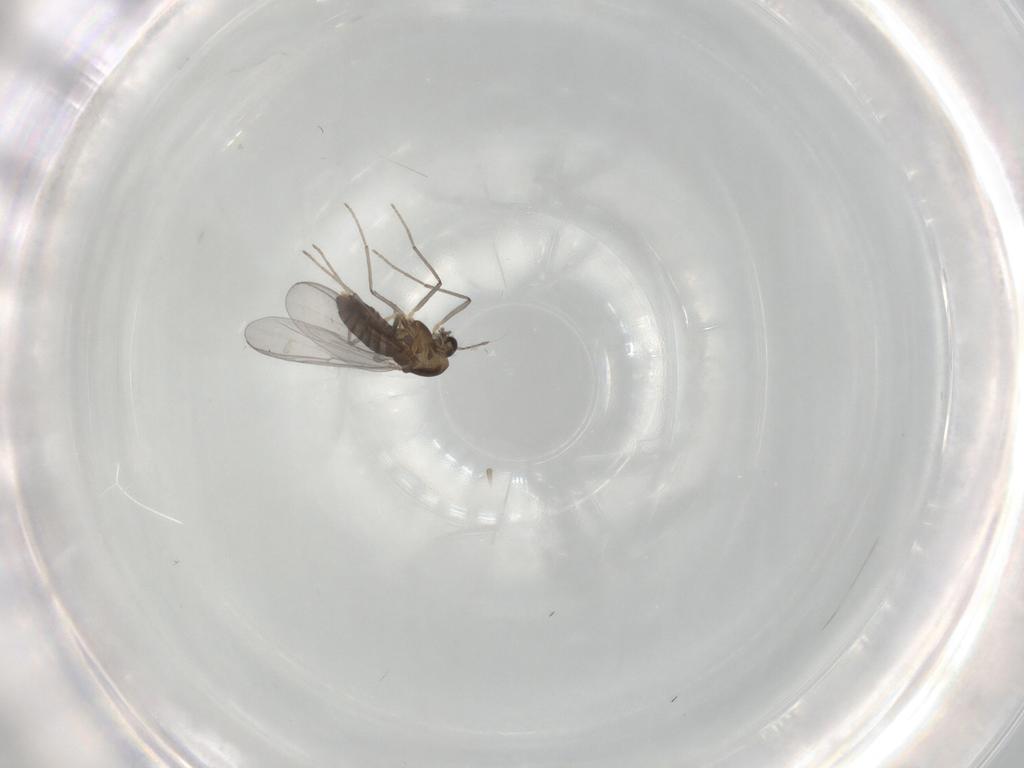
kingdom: Animalia
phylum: Arthropoda
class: Insecta
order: Diptera
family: Chironomidae
